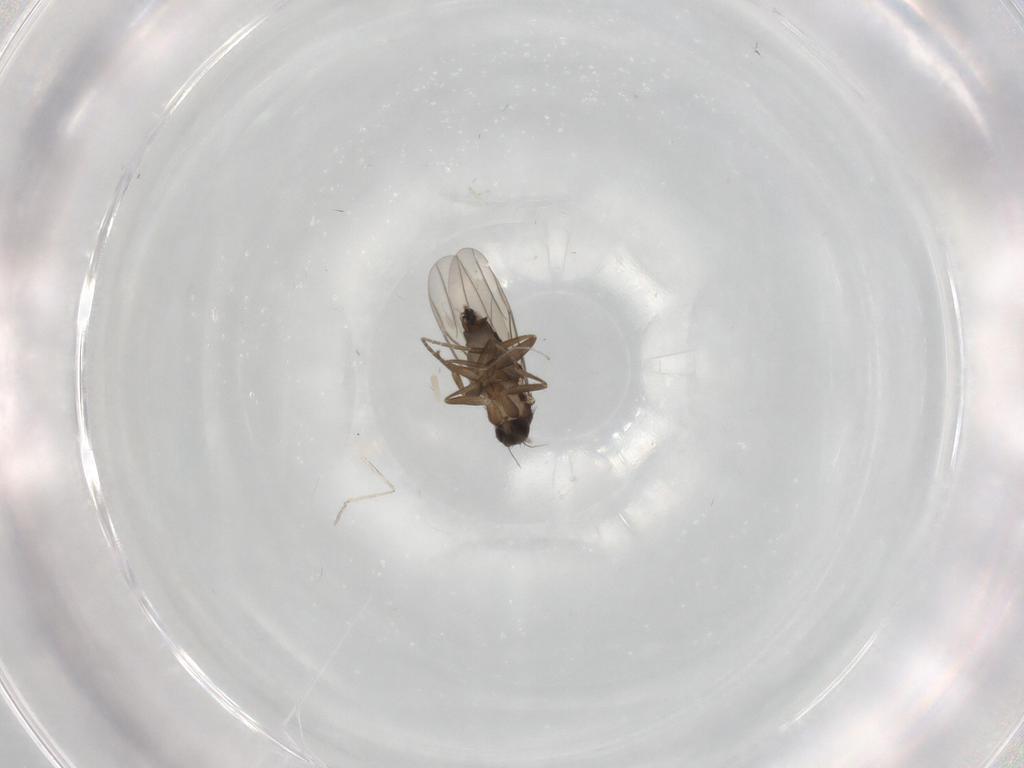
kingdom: Animalia
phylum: Arthropoda
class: Insecta
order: Diptera
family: Phoridae
